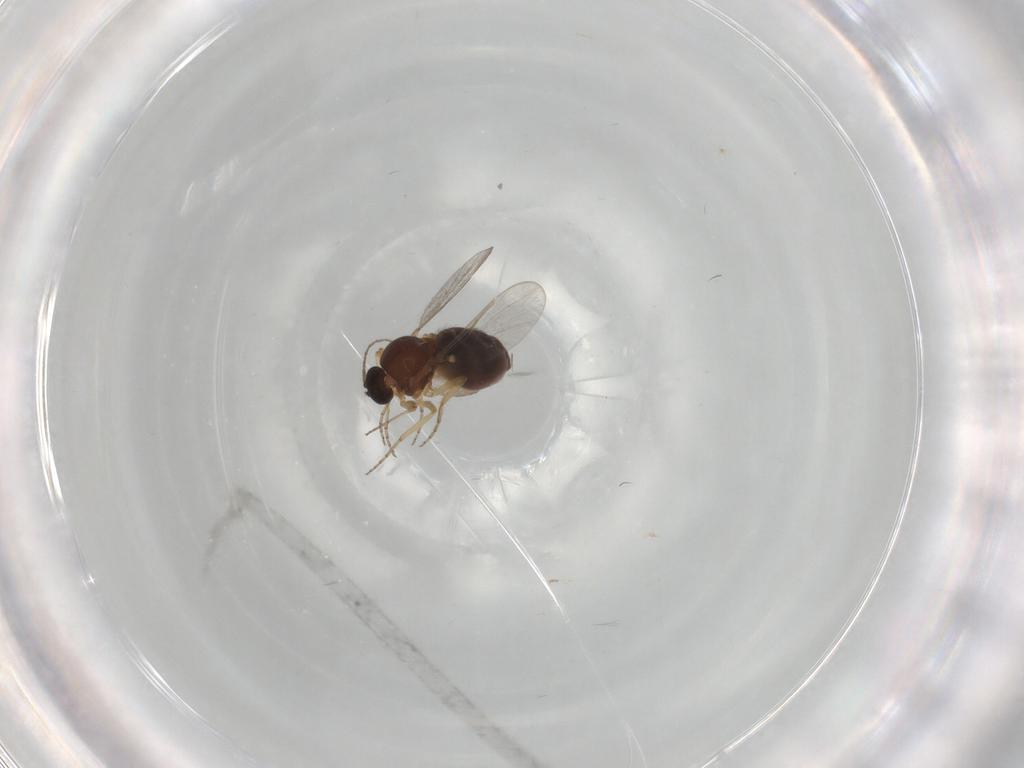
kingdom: Animalia
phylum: Arthropoda
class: Insecta
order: Diptera
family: Ceratopogonidae
